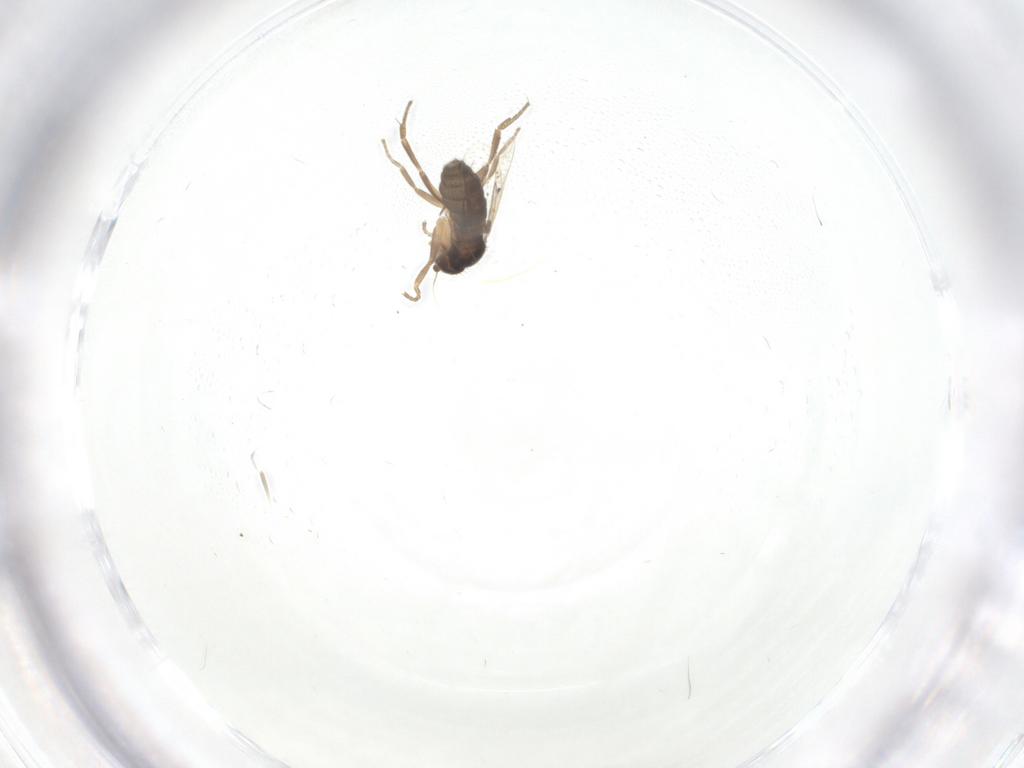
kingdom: Animalia
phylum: Arthropoda
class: Insecta
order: Diptera
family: Phoridae
